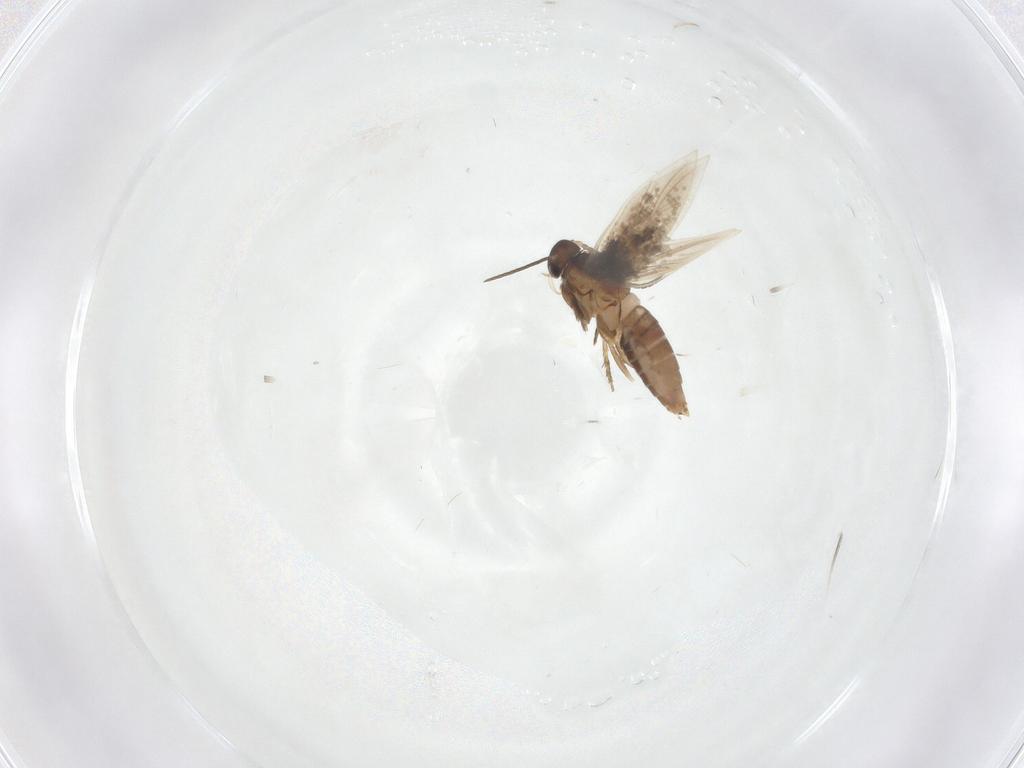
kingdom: Animalia
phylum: Arthropoda
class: Insecta
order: Lepidoptera
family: Heliozelidae
